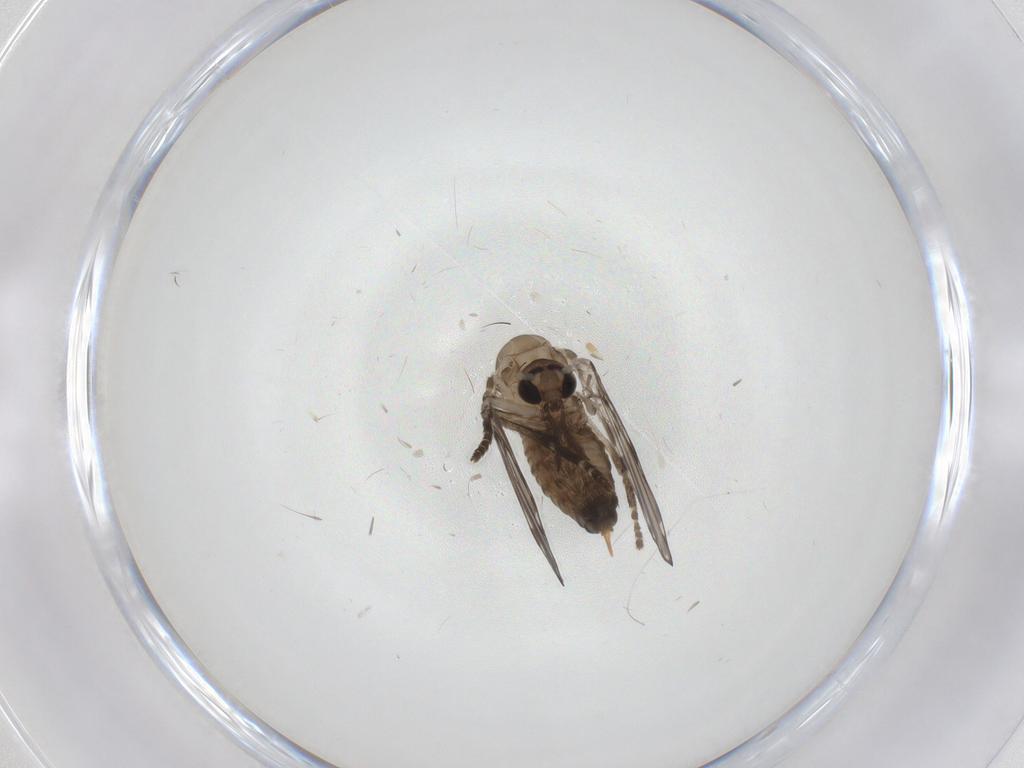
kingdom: Animalia
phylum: Arthropoda
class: Insecta
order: Diptera
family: Psychodidae
